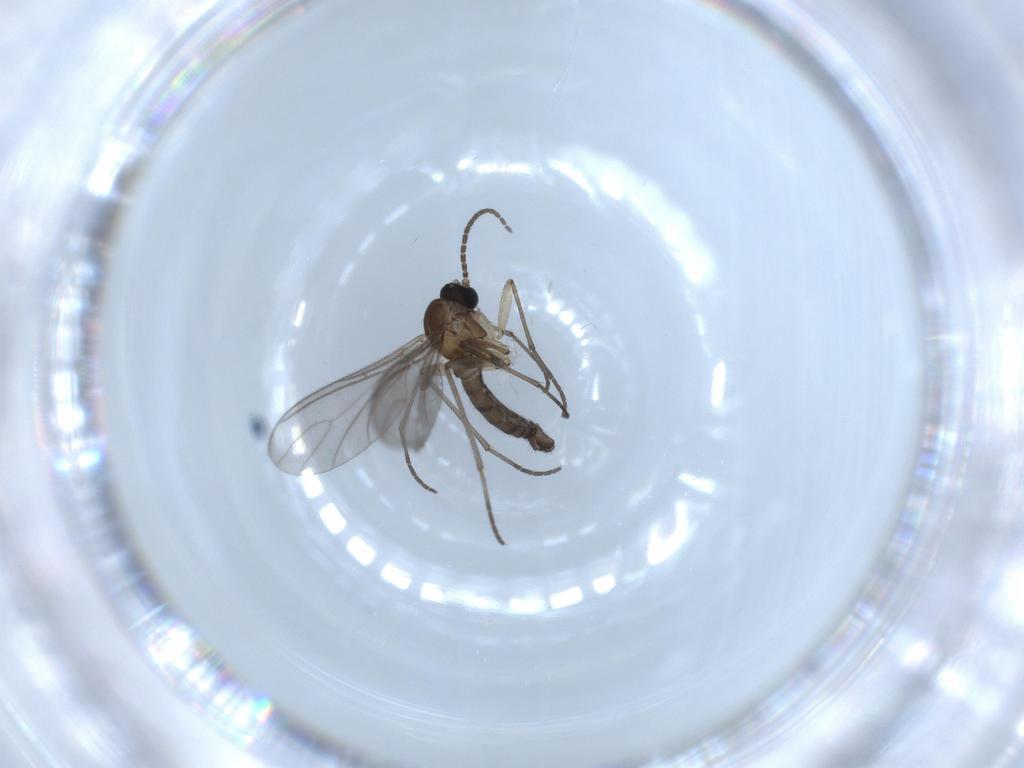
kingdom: Animalia
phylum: Arthropoda
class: Insecta
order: Diptera
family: Sciaridae
